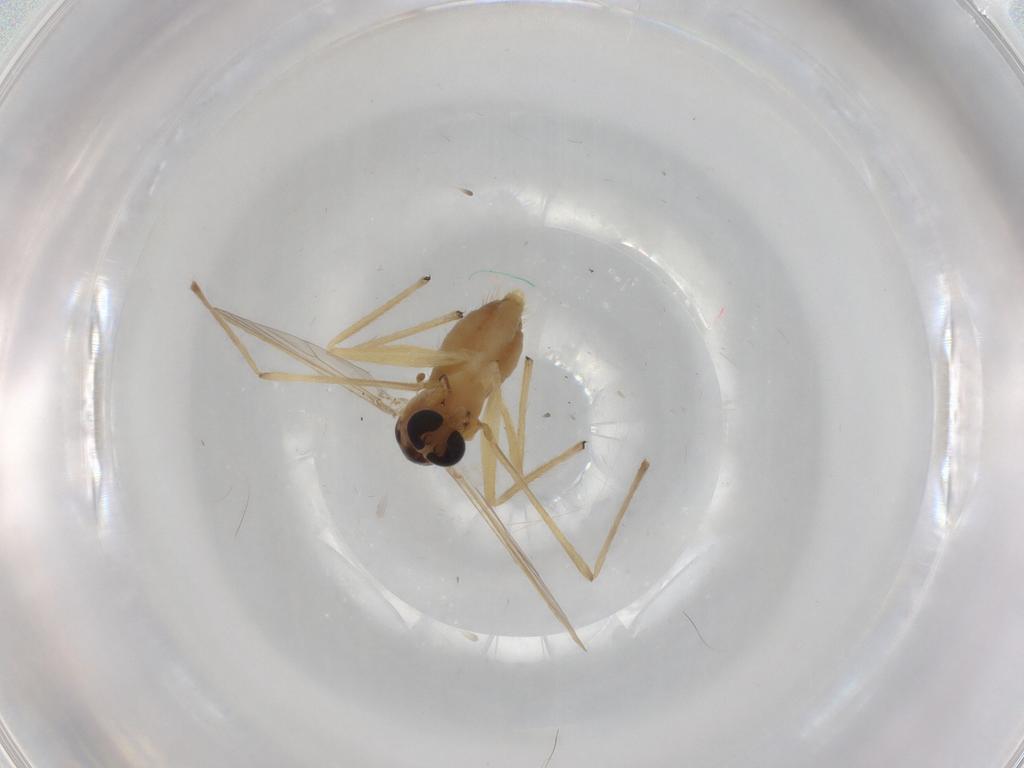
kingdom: Animalia
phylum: Arthropoda
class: Insecta
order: Diptera
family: Chironomidae
